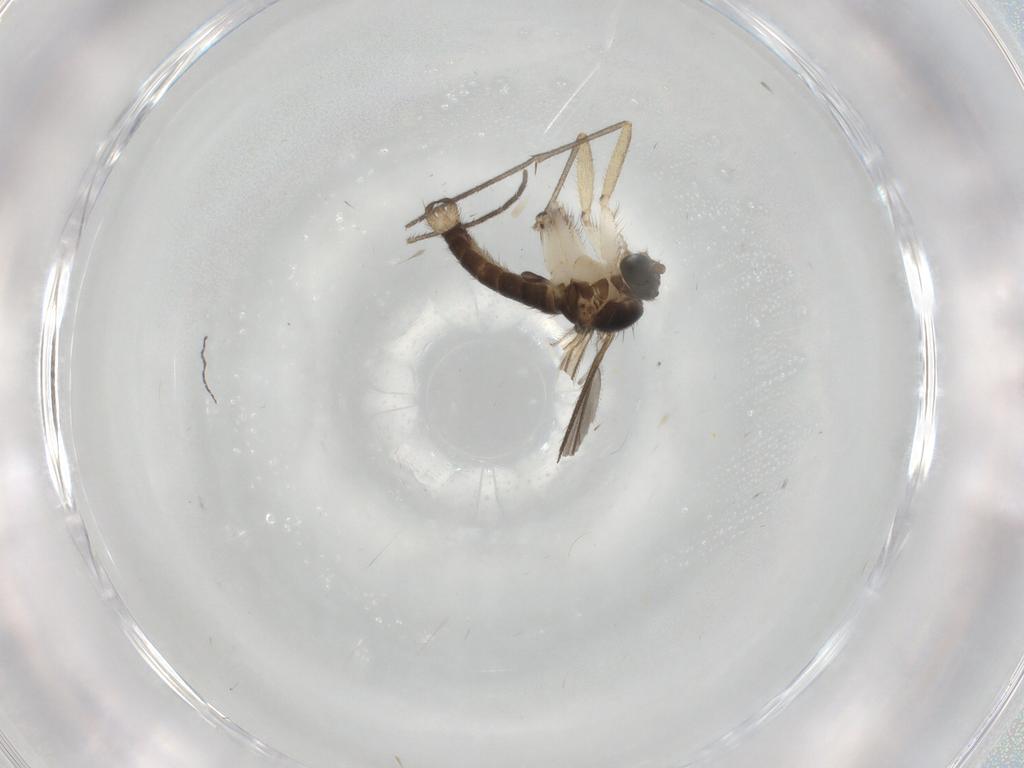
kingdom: Animalia
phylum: Arthropoda
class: Insecta
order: Diptera
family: Sciaridae
